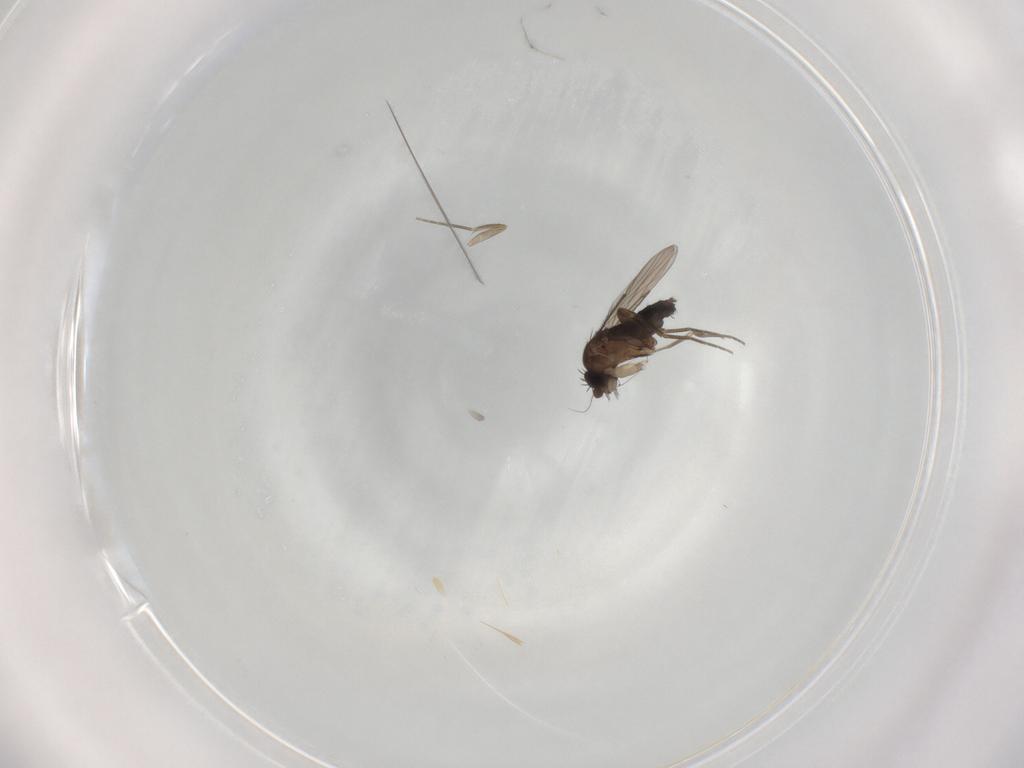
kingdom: Animalia
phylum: Arthropoda
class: Insecta
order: Diptera
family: Phoridae
